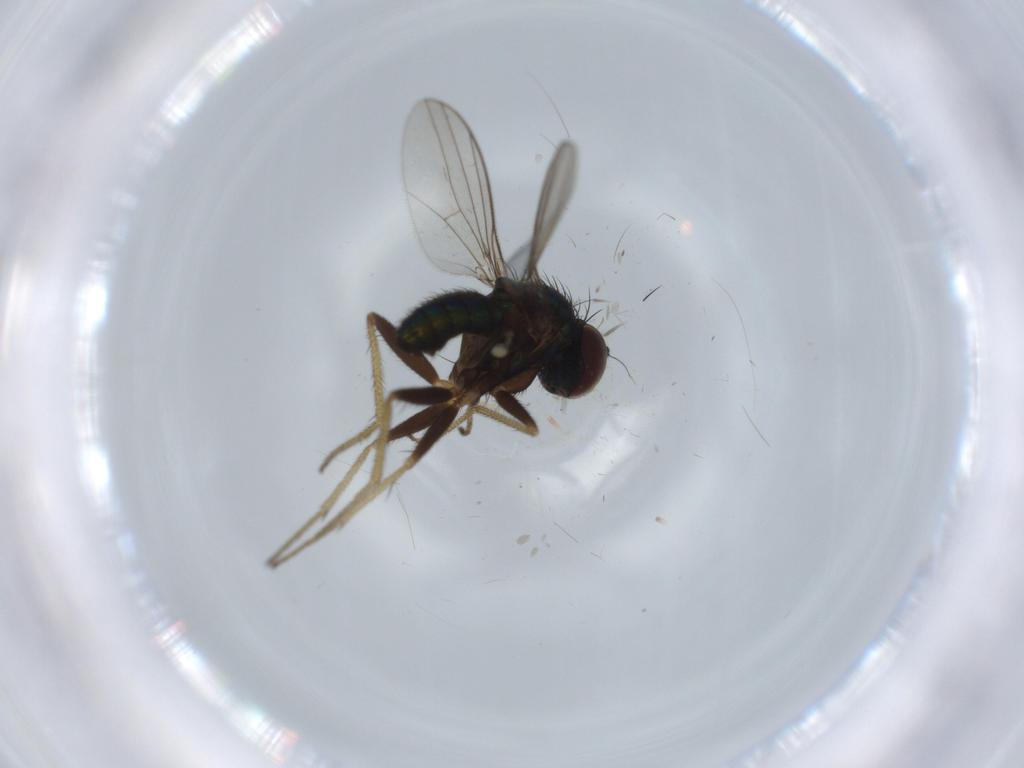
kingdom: Animalia
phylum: Arthropoda
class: Insecta
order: Diptera
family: Dolichopodidae
